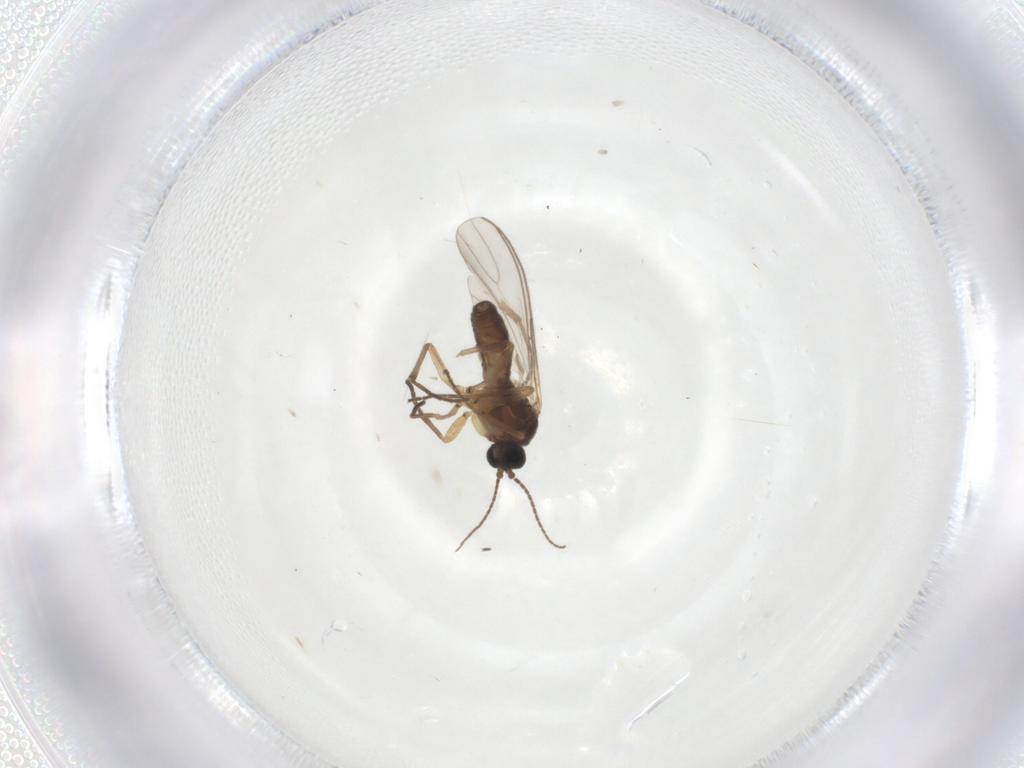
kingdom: Animalia
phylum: Arthropoda
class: Insecta
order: Diptera
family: Sciaridae
